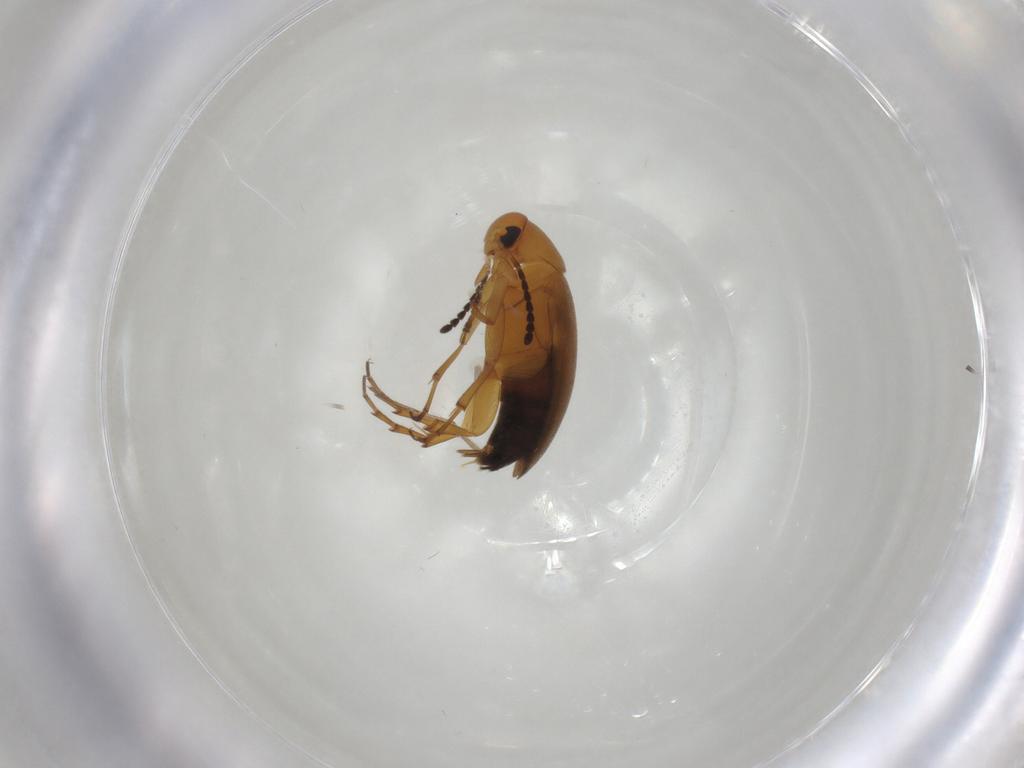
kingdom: Animalia
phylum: Arthropoda
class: Insecta
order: Coleoptera
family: Scraptiidae
